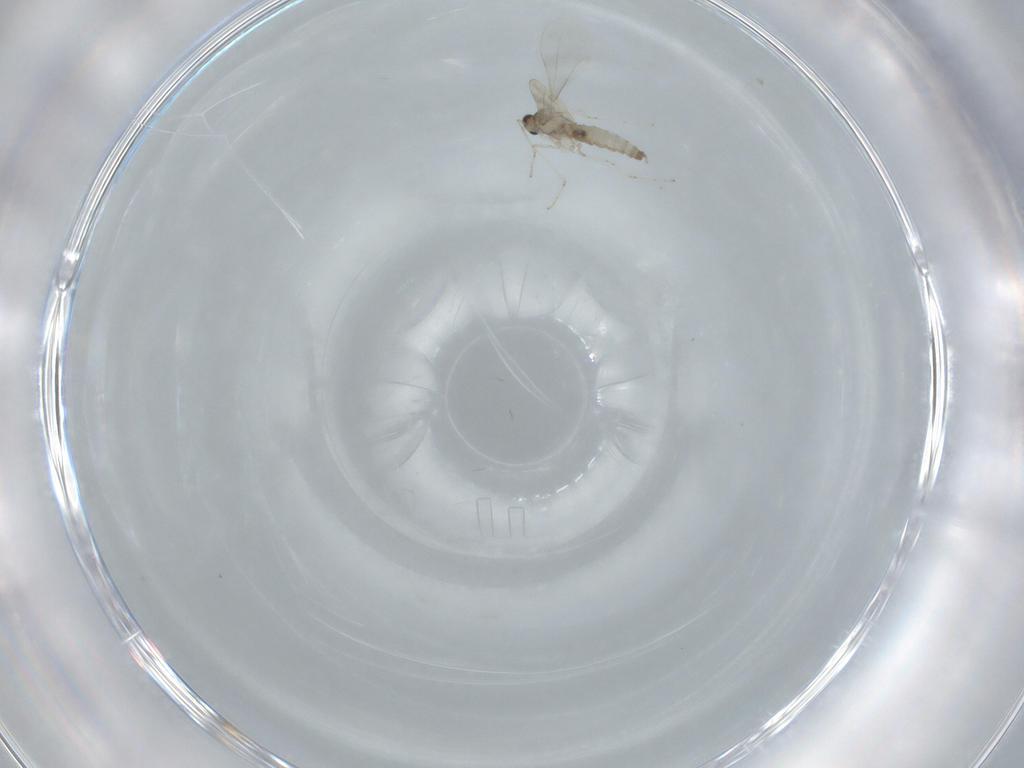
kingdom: Animalia
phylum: Arthropoda
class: Insecta
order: Diptera
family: Cecidomyiidae
